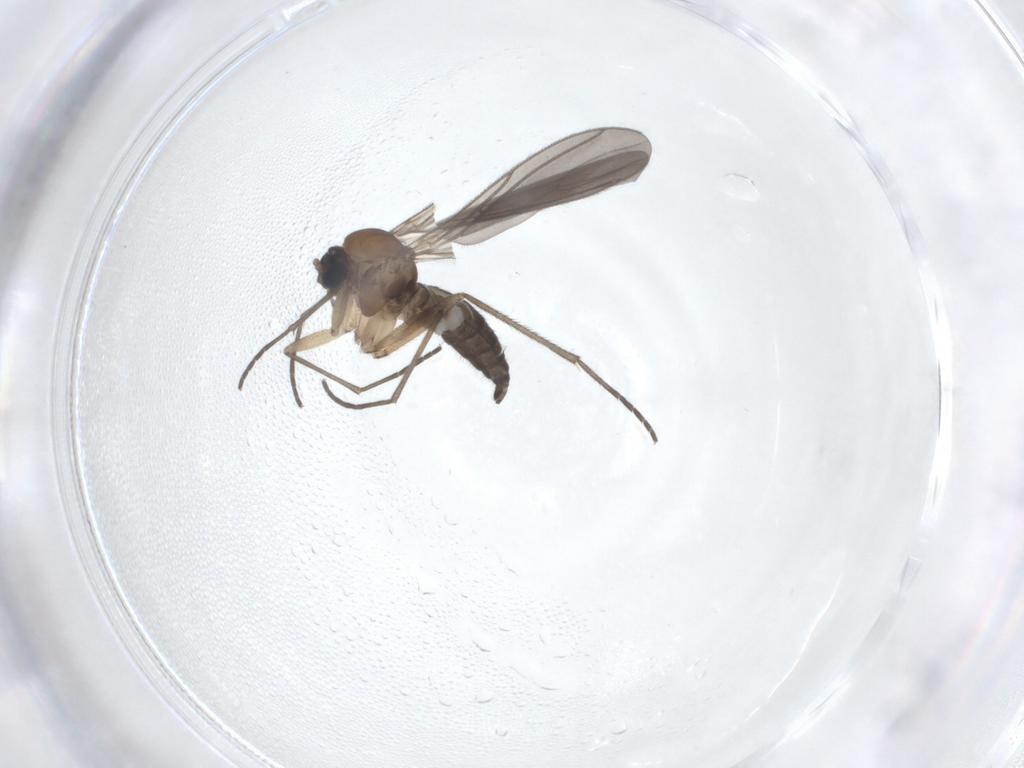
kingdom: Animalia
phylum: Arthropoda
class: Insecta
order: Diptera
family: Sciaridae
